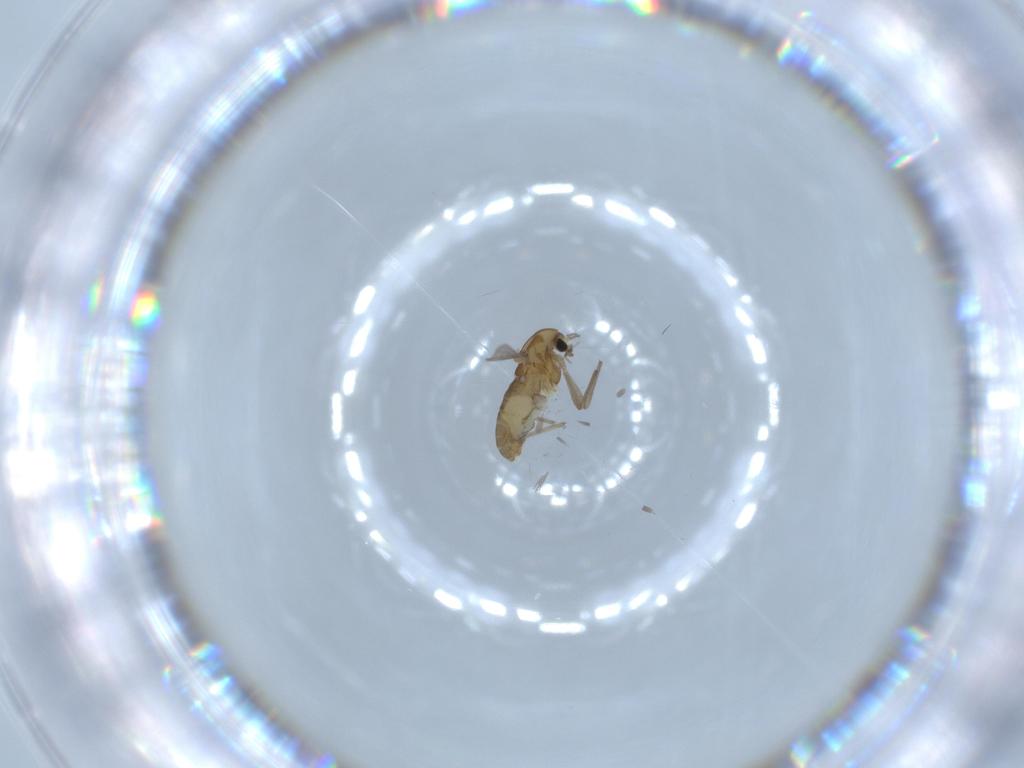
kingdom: Animalia
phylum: Arthropoda
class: Insecta
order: Diptera
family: Chironomidae
